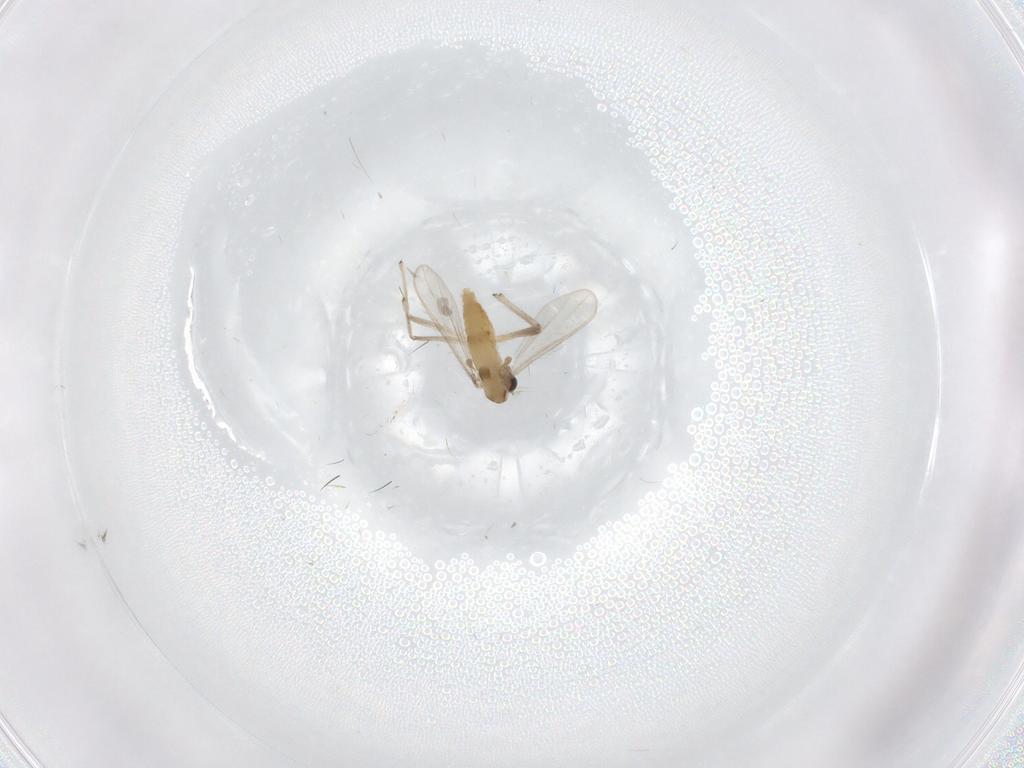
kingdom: Animalia
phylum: Arthropoda
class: Insecta
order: Diptera
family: Chironomidae
